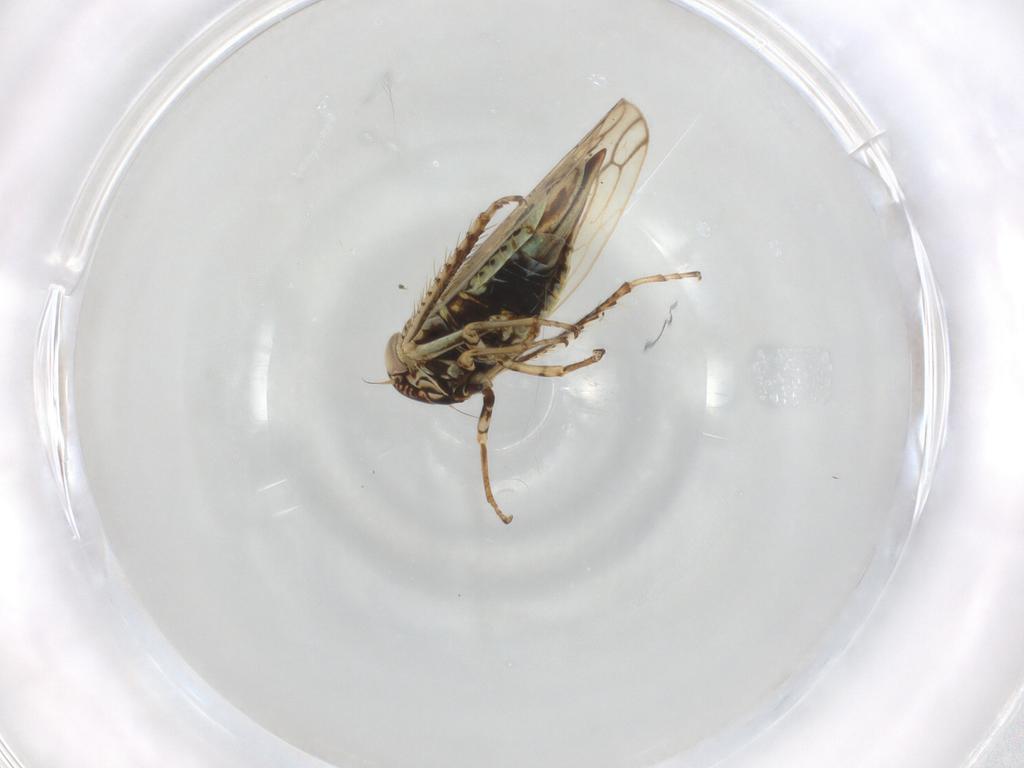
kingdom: Animalia
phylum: Arthropoda
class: Insecta
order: Hemiptera
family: Cicadellidae
